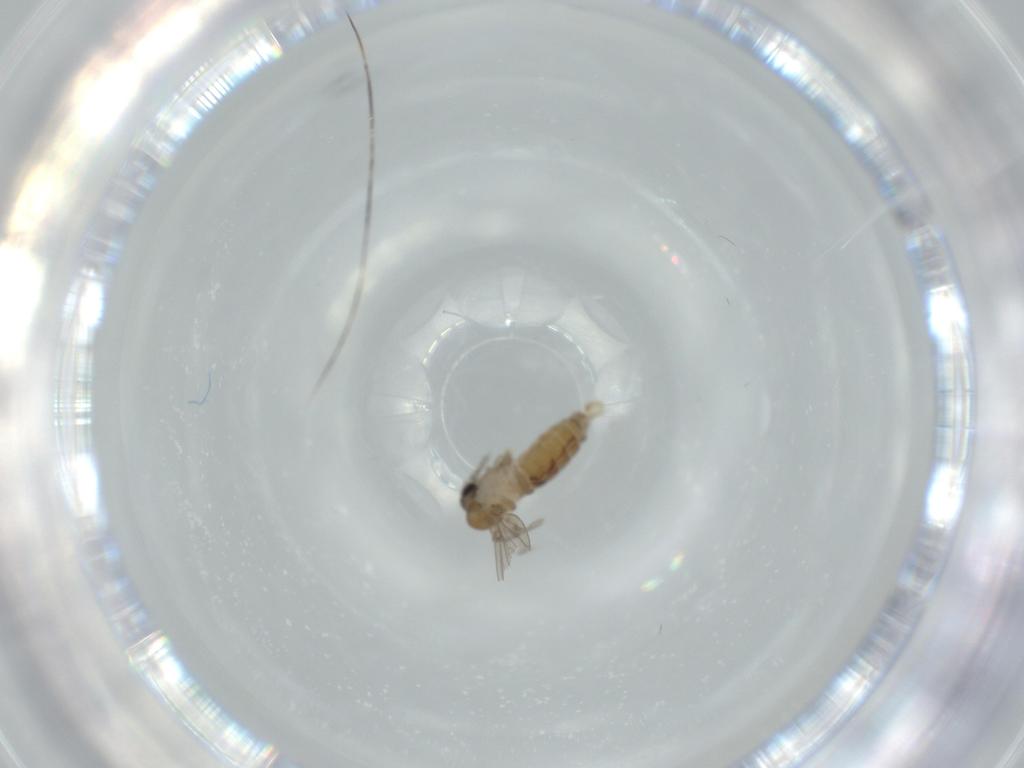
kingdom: Animalia
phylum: Arthropoda
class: Insecta
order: Diptera
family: Psychodidae
